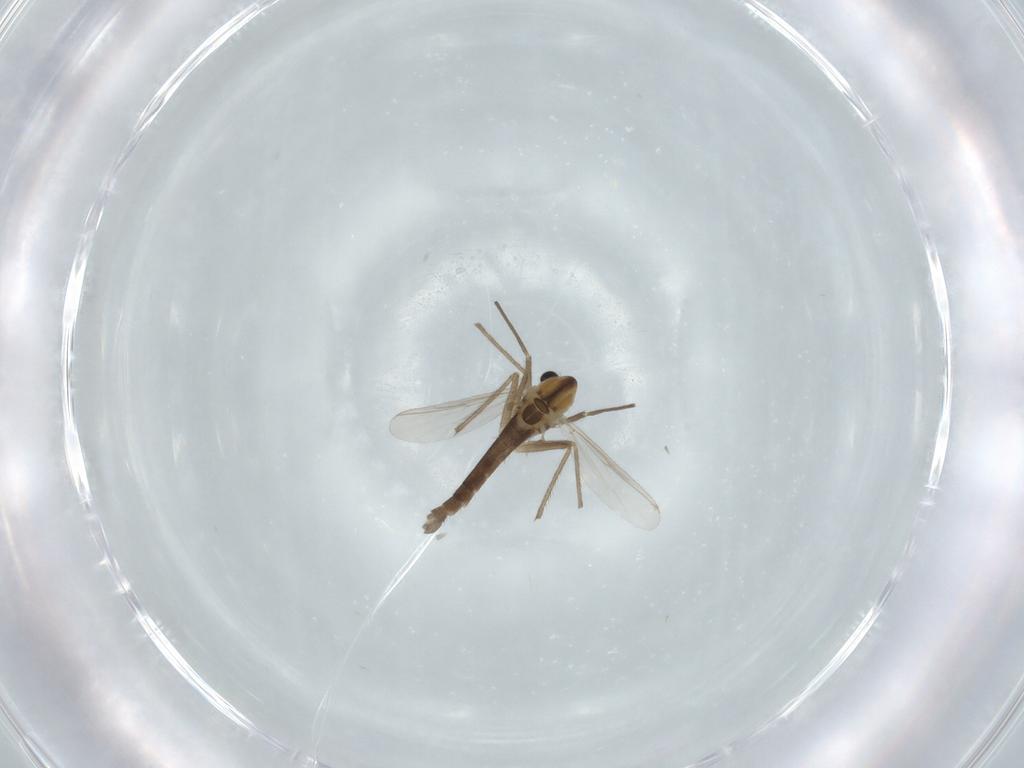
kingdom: Animalia
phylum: Arthropoda
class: Insecta
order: Diptera
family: Chironomidae
